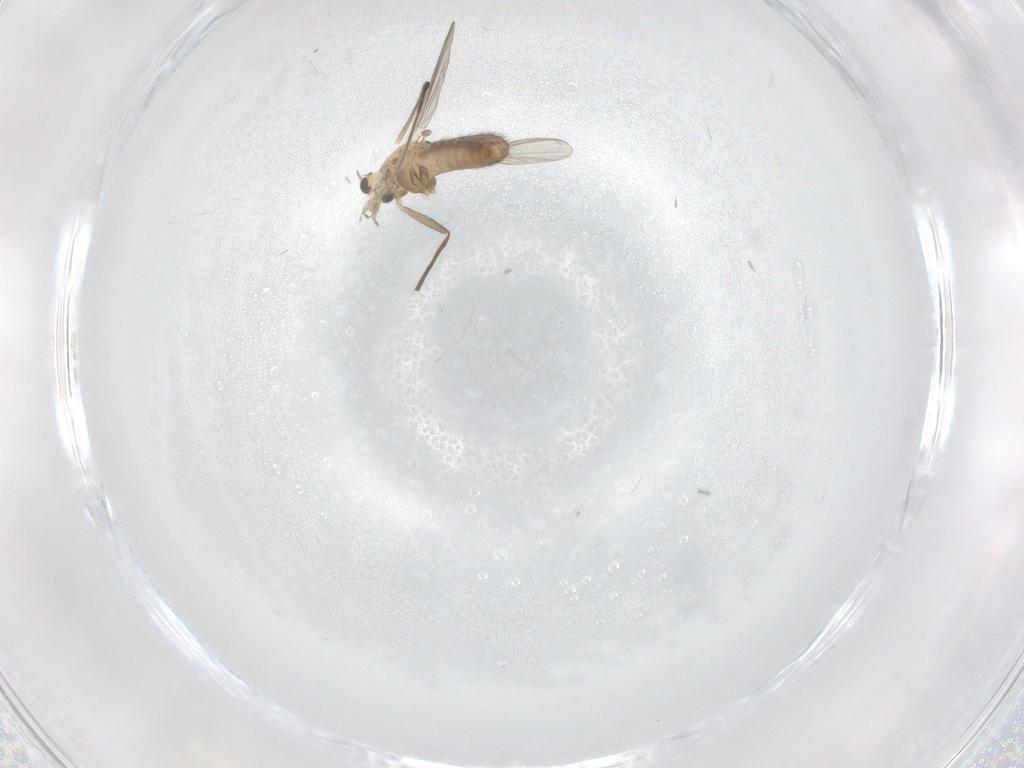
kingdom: Animalia
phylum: Arthropoda
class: Insecta
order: Diptera
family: Chironomidae
